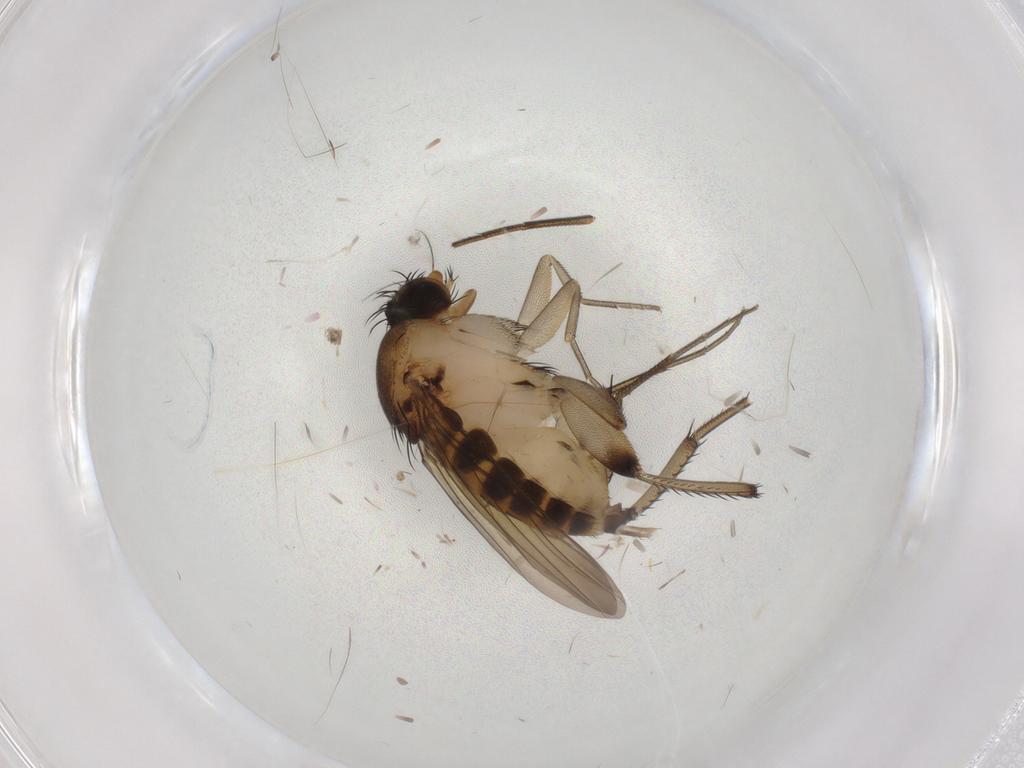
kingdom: Animalia
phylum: Arthropoda
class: Insecta
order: Diptera
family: Phoridae
